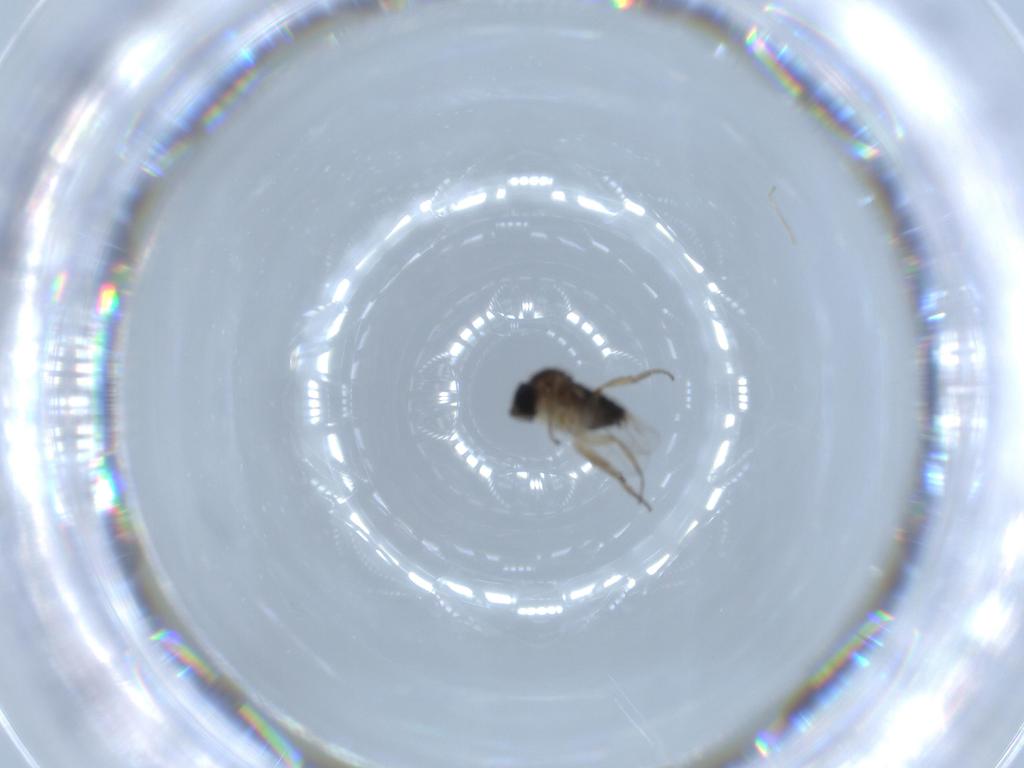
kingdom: Animalia
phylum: Arthropoda
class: Insecta
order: Diptera
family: Phoridae
